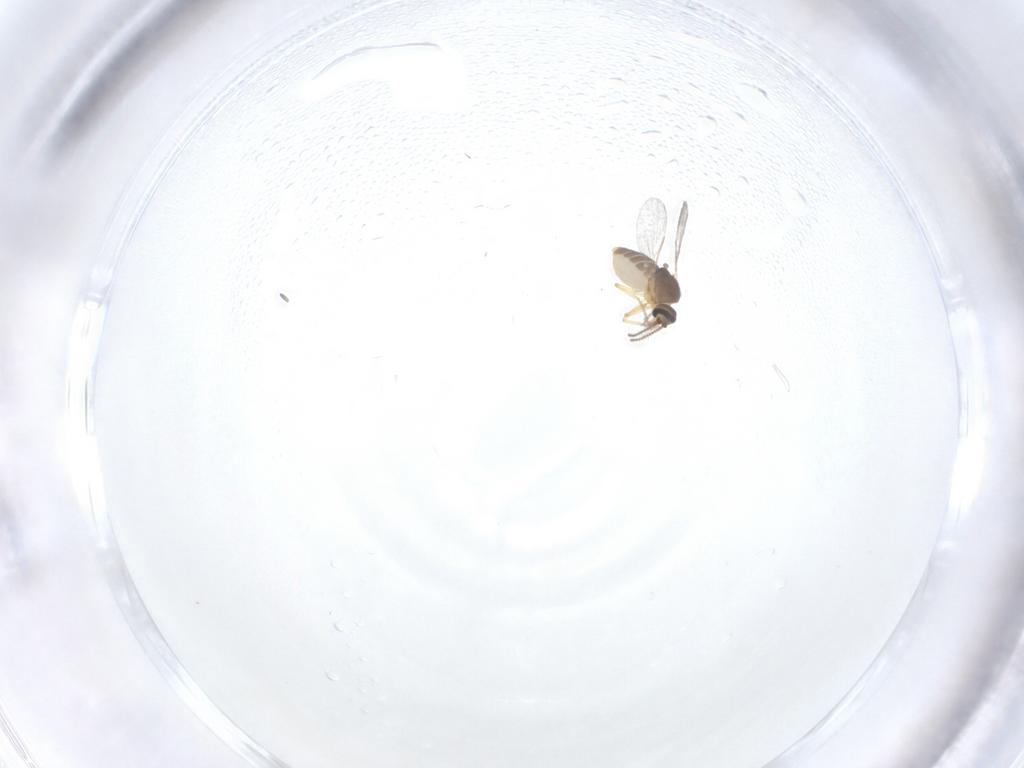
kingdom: Animalia
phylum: Arthropoda
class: Insecta
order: Diptera
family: Ceratopogonidae
